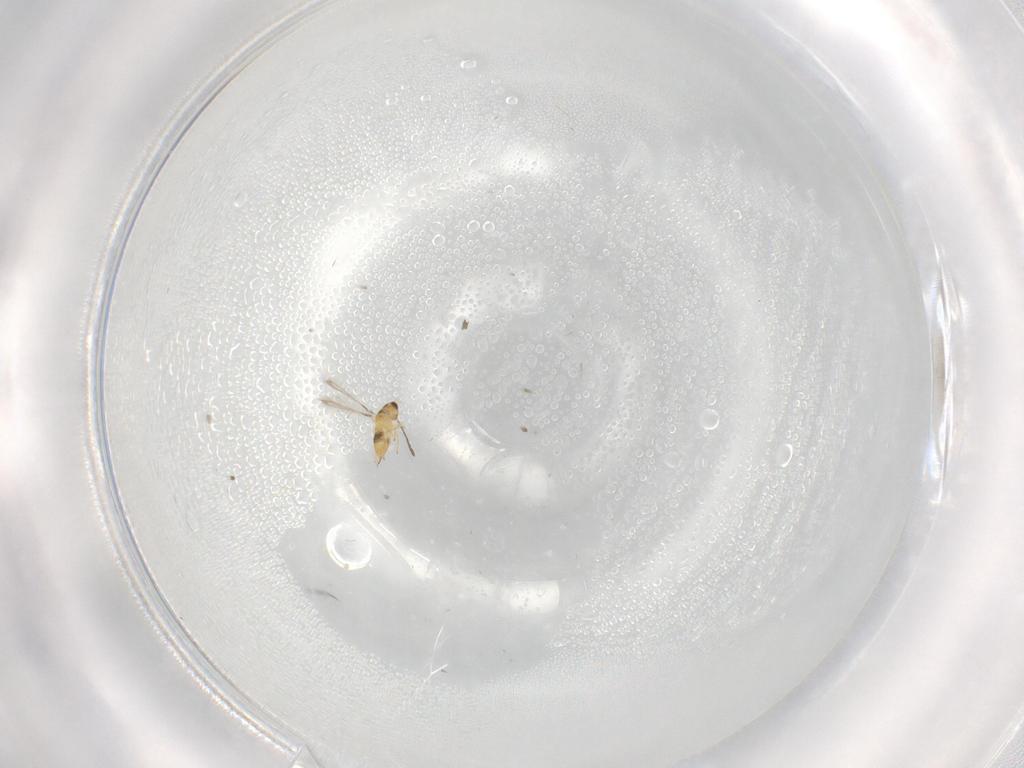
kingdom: Animalia
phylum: Arthropoda
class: Insecta
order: Hymenoptera
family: Mymaridae
